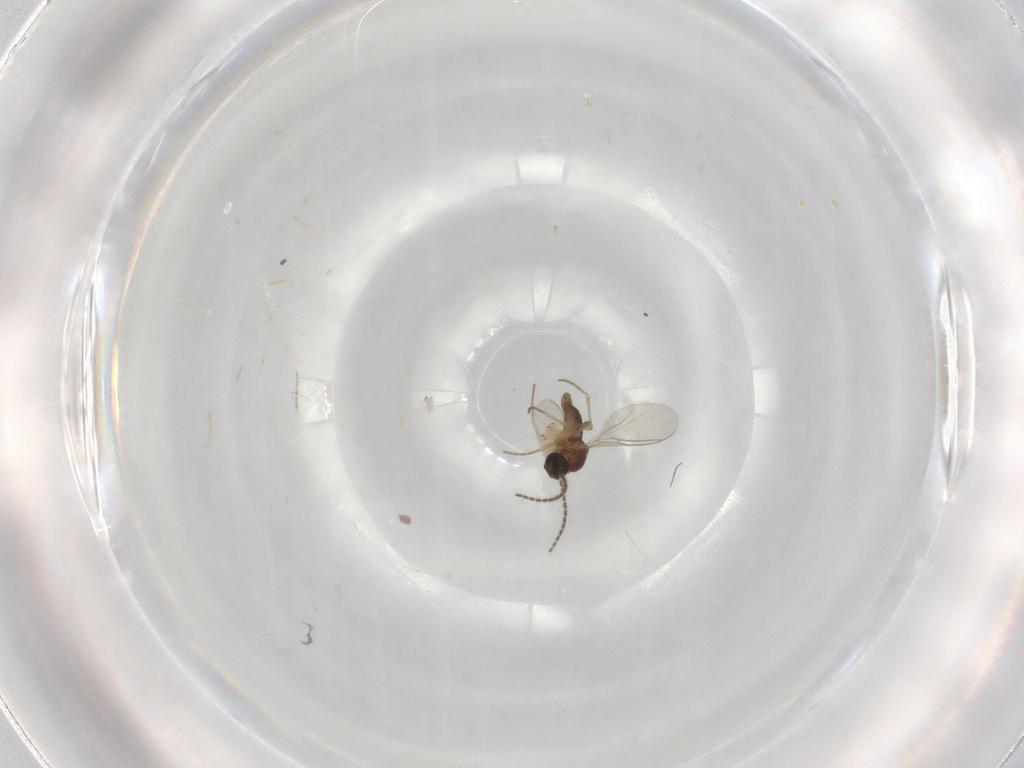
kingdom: Animalia
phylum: Arthropoda
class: Insecta
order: Diptera
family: Cecidomyiidae
